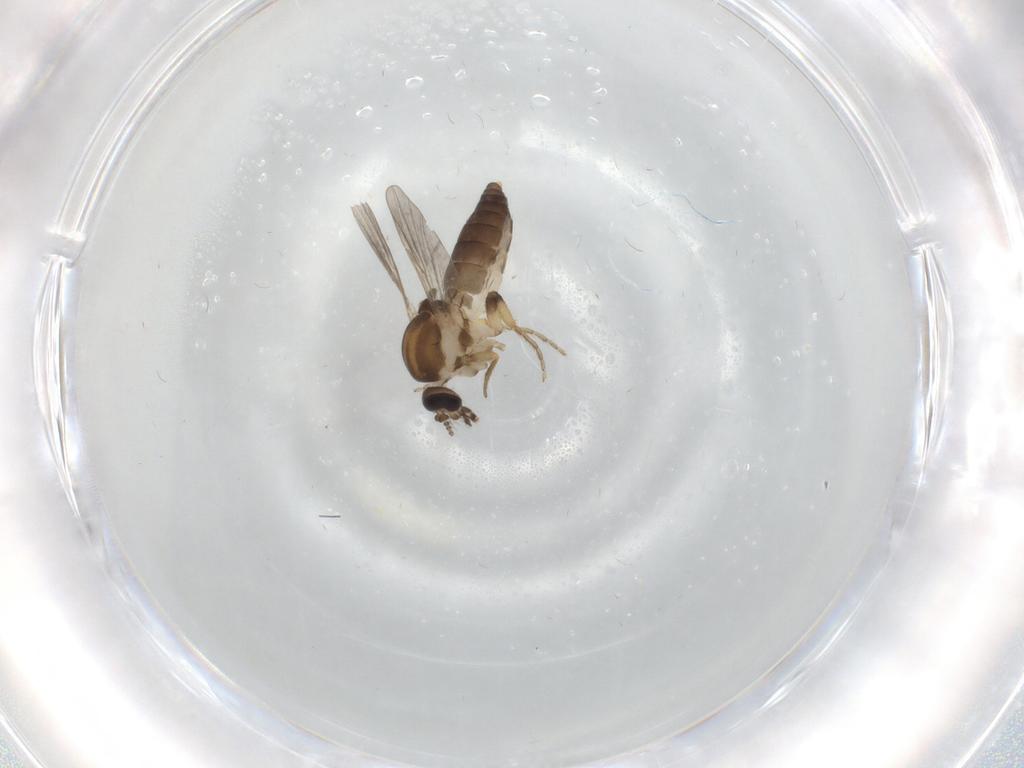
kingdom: Animalia
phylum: Arthropoda
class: Insecta
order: Diptera
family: Ceratopogonidae
